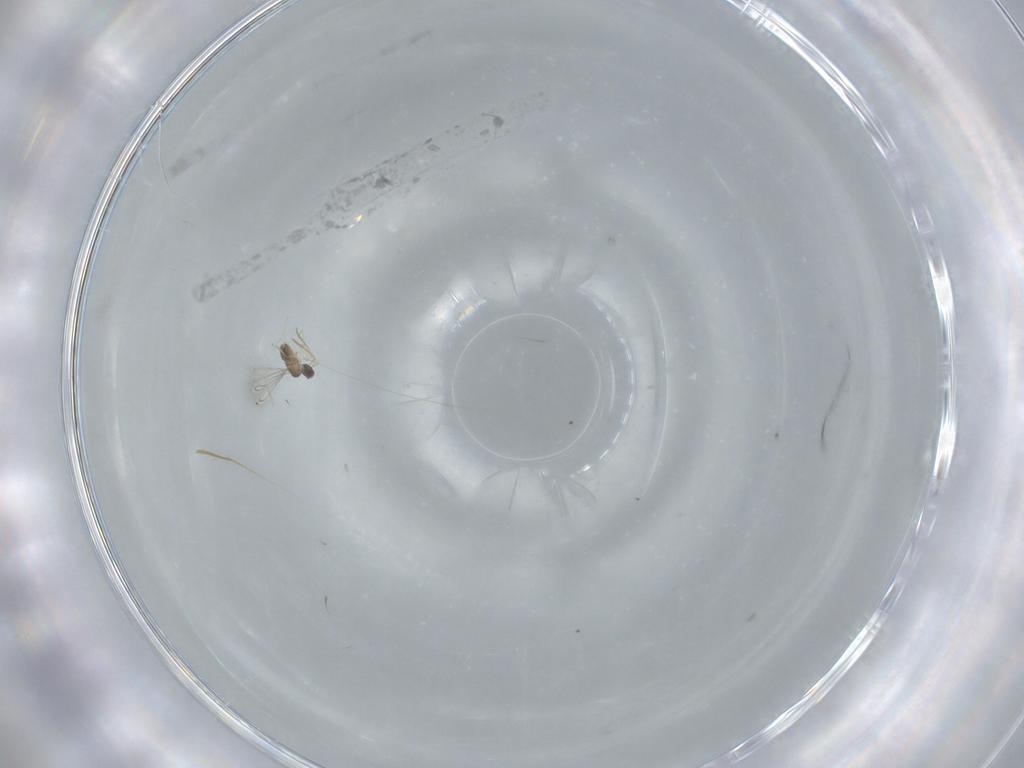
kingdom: Animalia
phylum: Arthropoda
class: Insecta
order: Hymenoptera
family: Mymaridae
